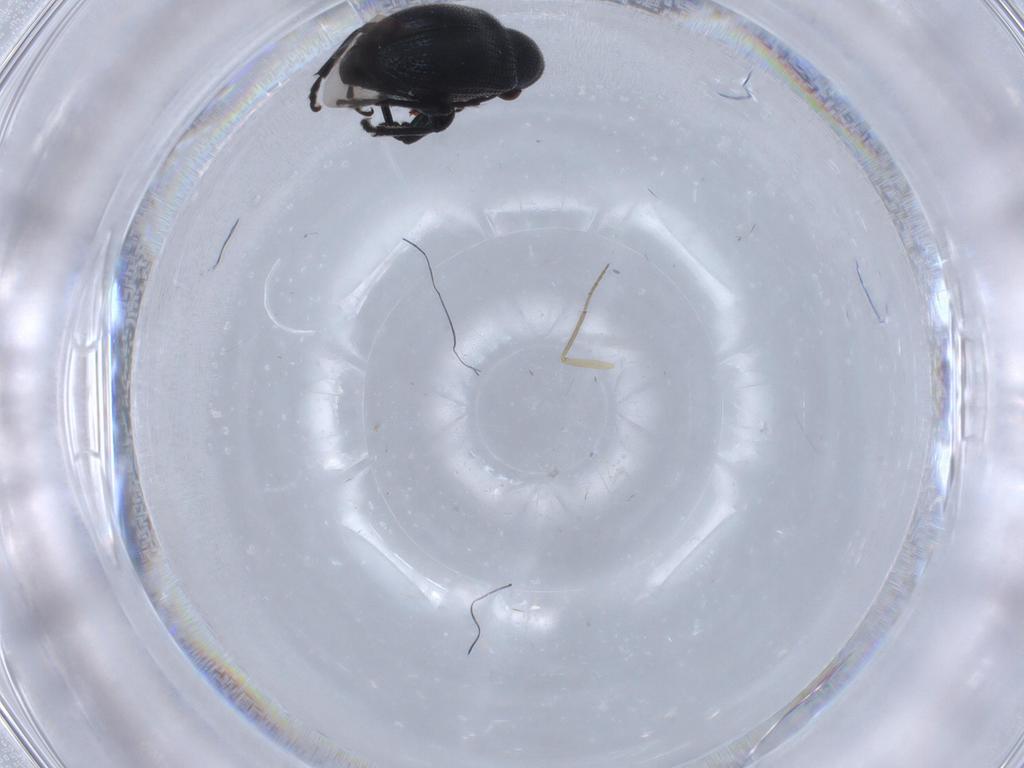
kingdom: Animalia
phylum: Arthropoda
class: Insecta
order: Coleoptera
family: Attelabidae
